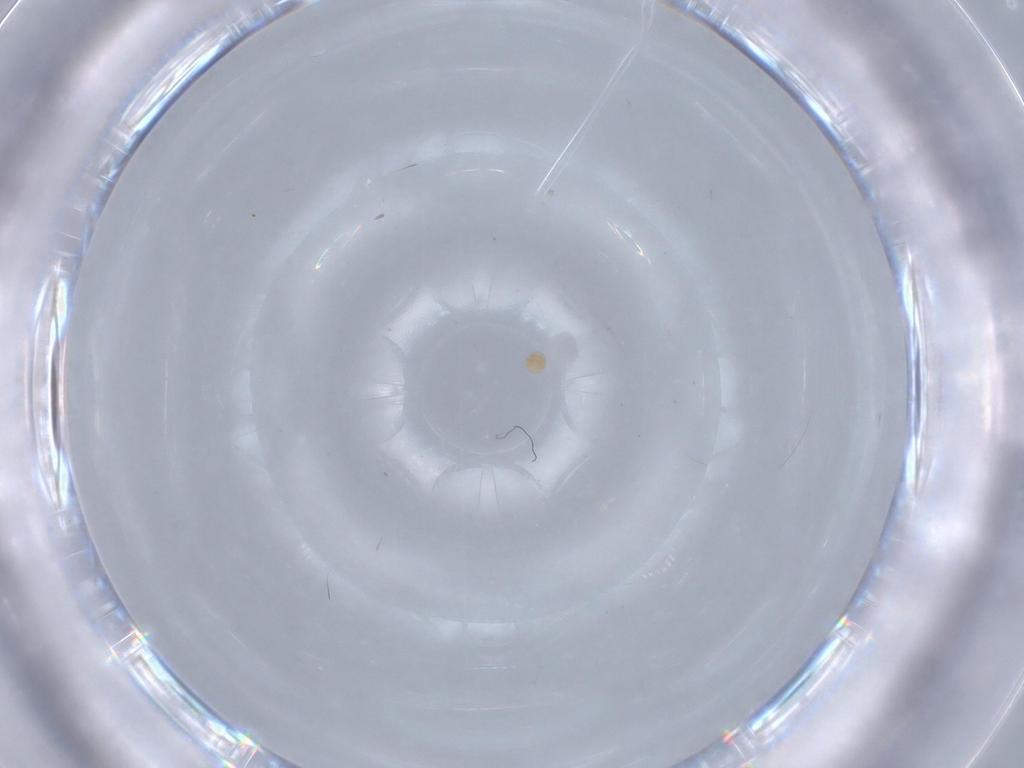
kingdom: Animalia
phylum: Arthropoda
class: Arachnida
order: Trombidiformes
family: Scutacaridae
